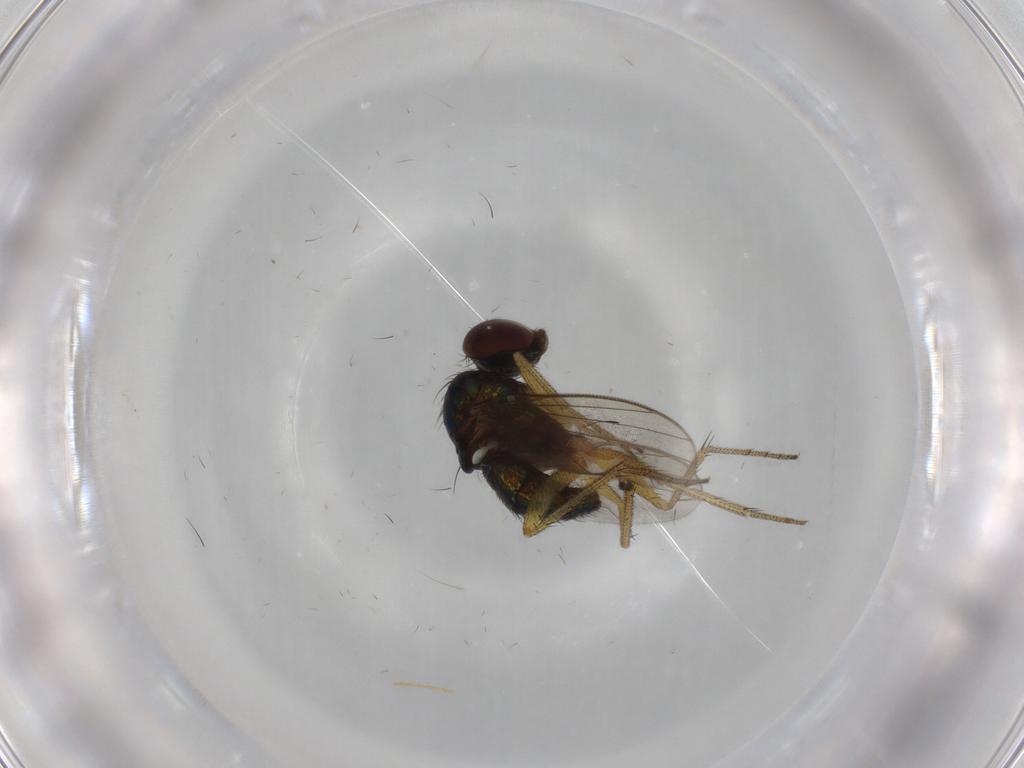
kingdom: Animalia
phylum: Arthropoda
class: Insecta
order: Diptera
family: Dolichopodidae
